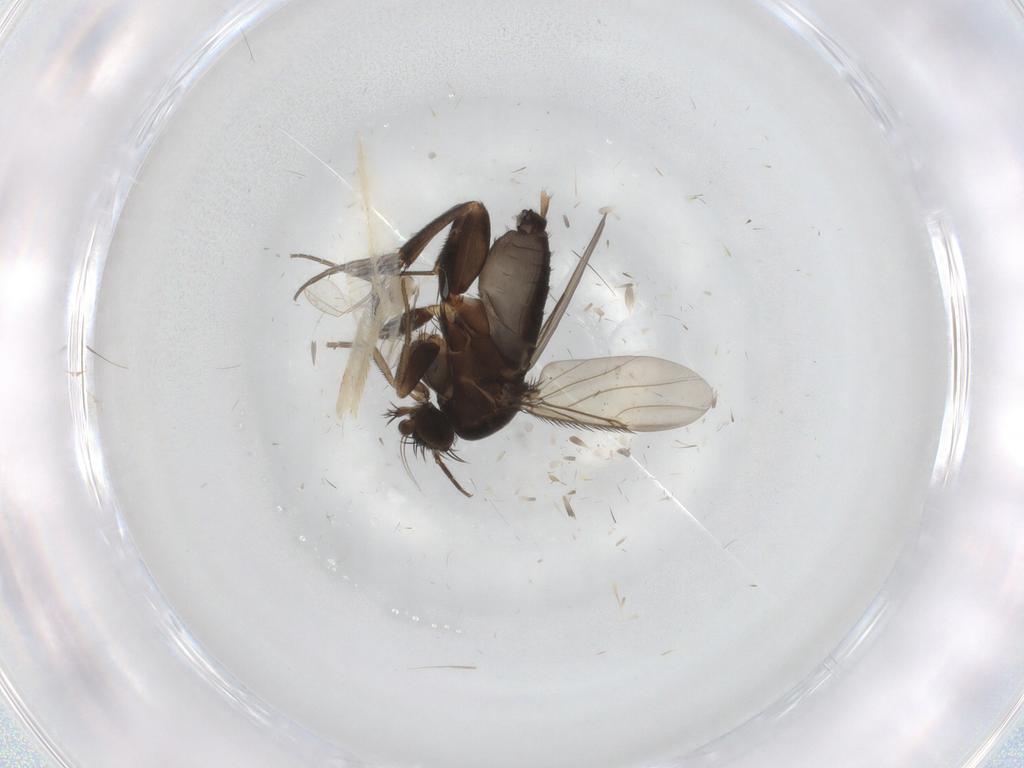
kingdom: Animalia
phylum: Arthropoda
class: Insecta
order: Diptera
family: Phoridae
